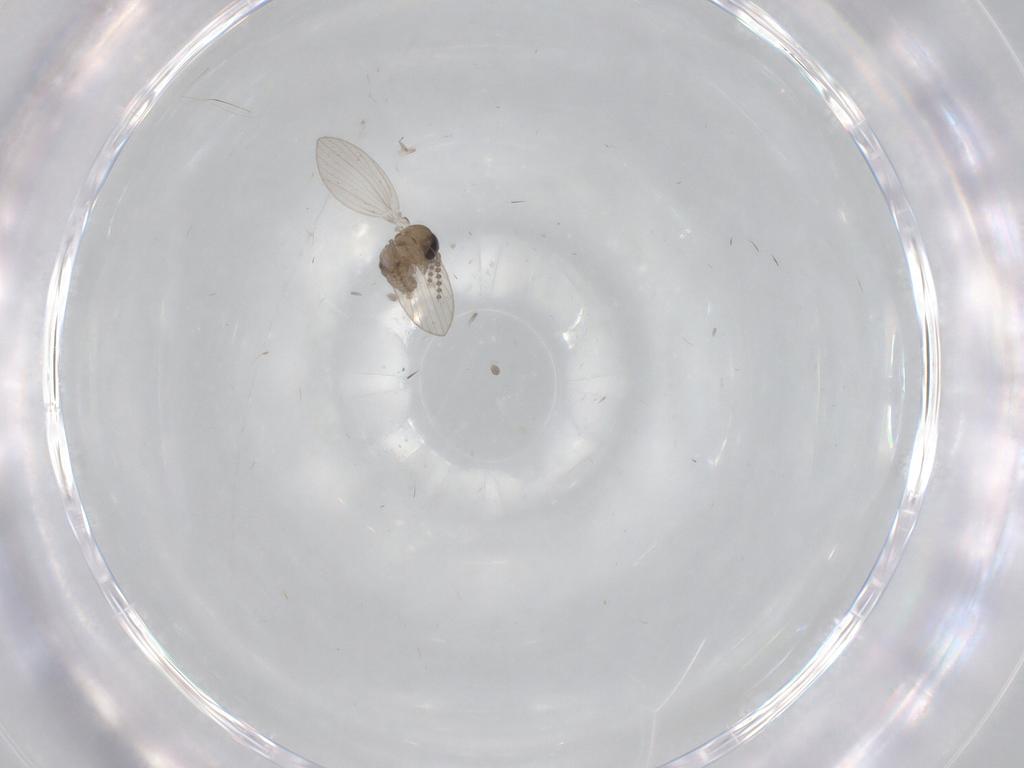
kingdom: Animalia
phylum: Arthropoda
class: Insecta
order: Diptera
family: Psychodidae
